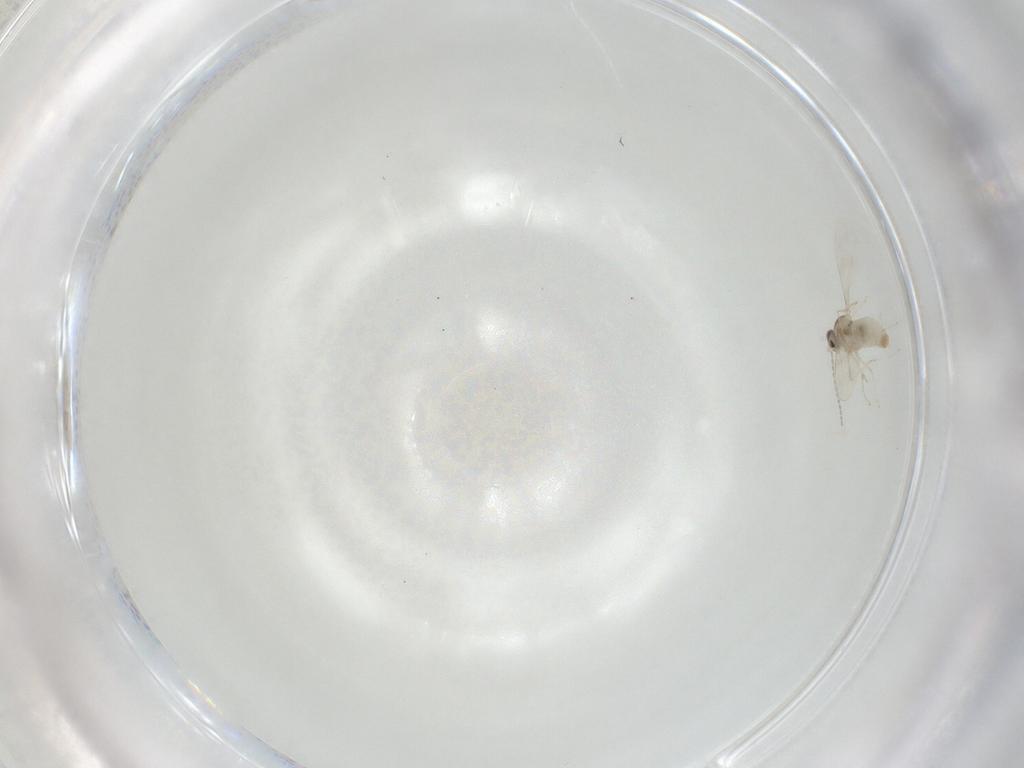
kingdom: Animalia
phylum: Arthropoda
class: Insecta
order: Diptera
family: Cecidomyiidae
